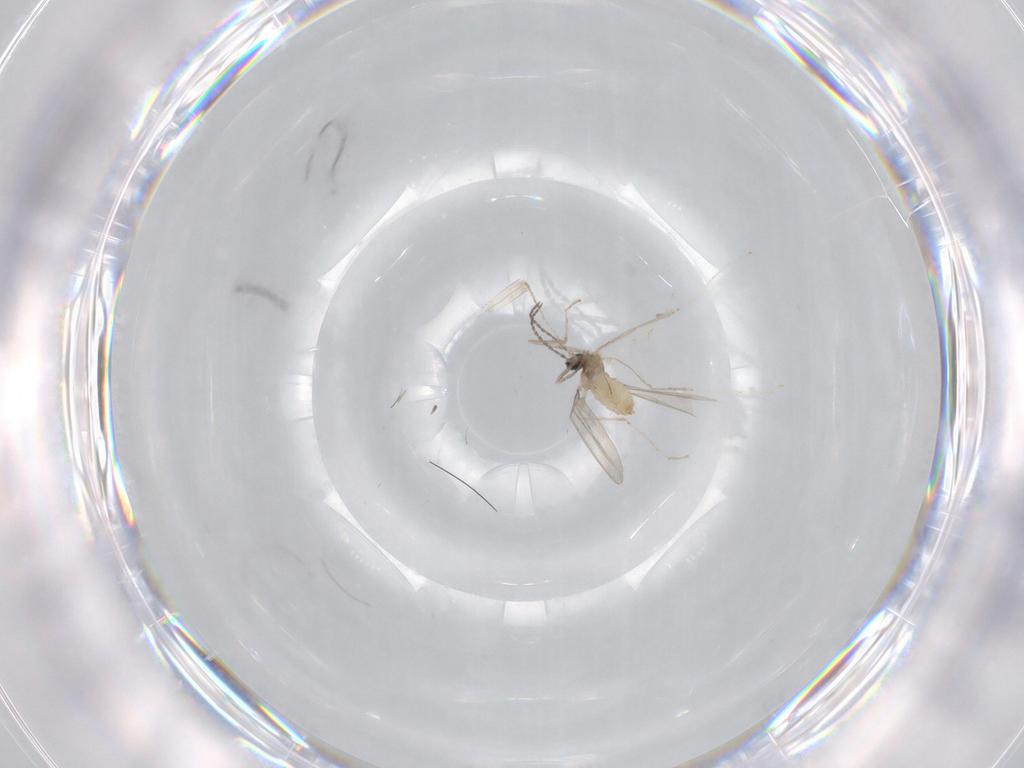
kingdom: Animalia
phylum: Arthropoda
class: Insecta
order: Diptera
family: Cecidomyiidae
